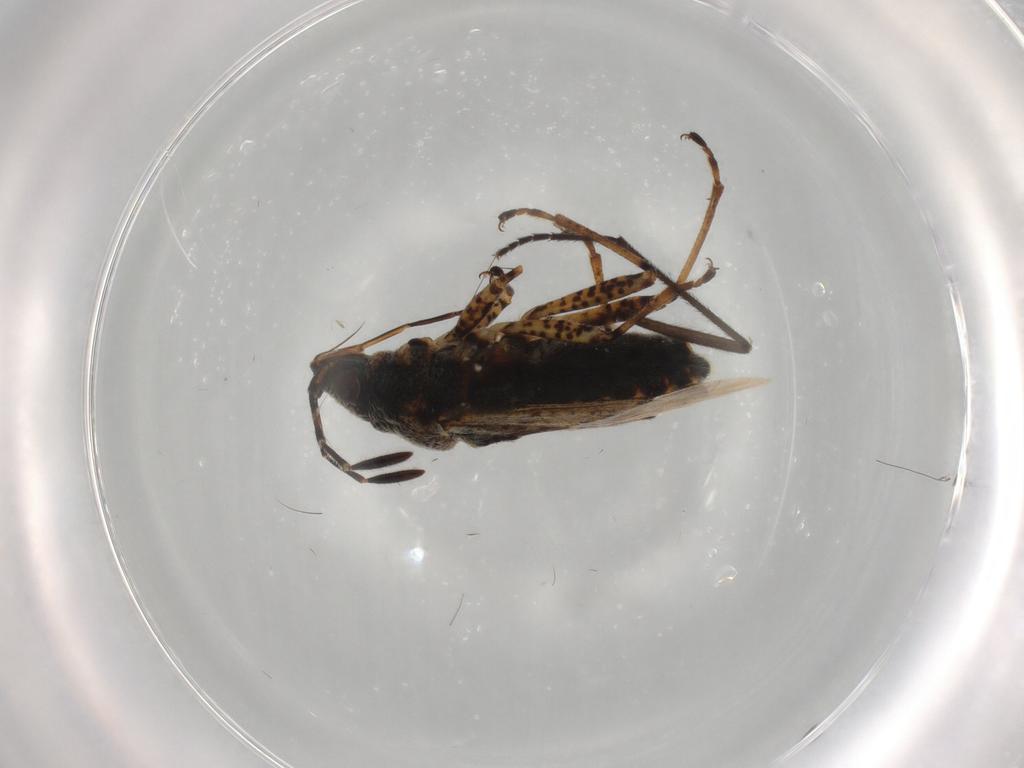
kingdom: Animalia
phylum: Arthropoda
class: Insecta
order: Hemiptera
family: Lygaeidae
